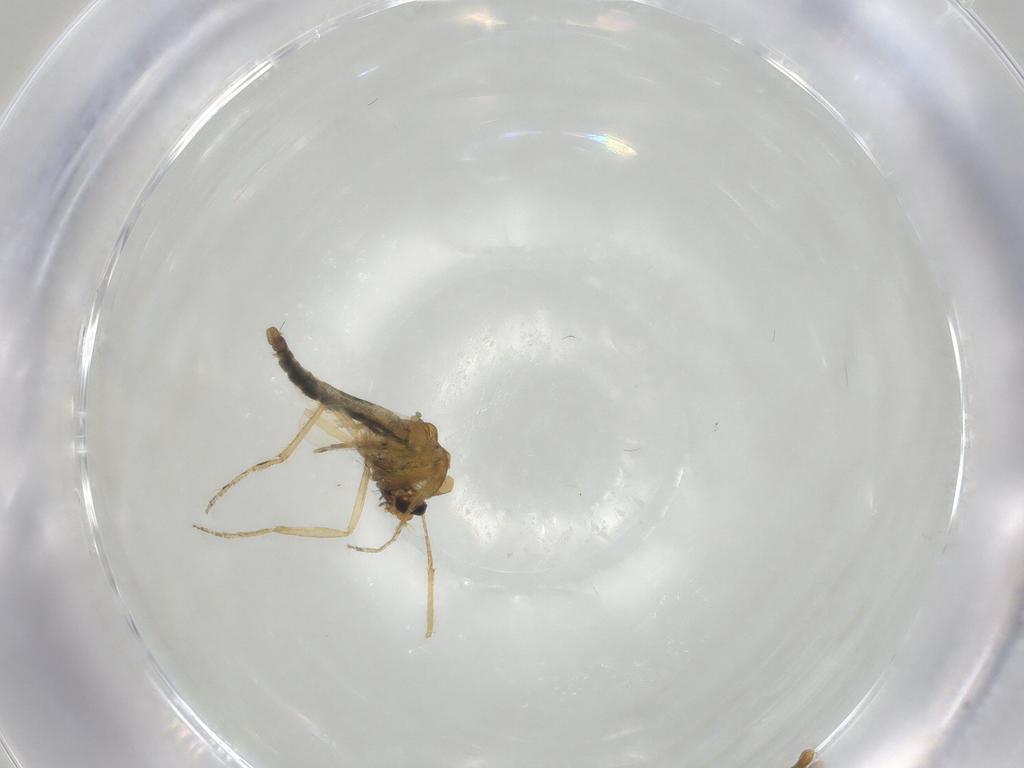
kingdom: Animalia
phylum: Arthropoda
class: Insecta
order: Diptera
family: Ceratopogonidae
